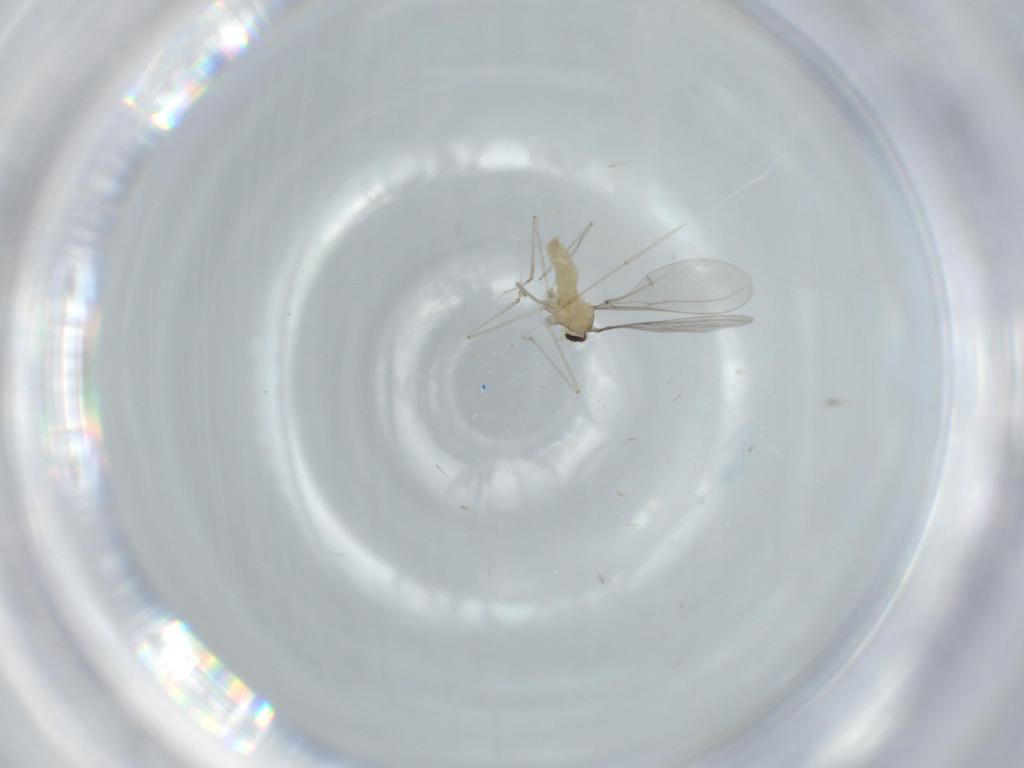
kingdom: Animalia
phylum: Arthropoda
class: Insecta
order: Diptera
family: Cecidomyiidae
